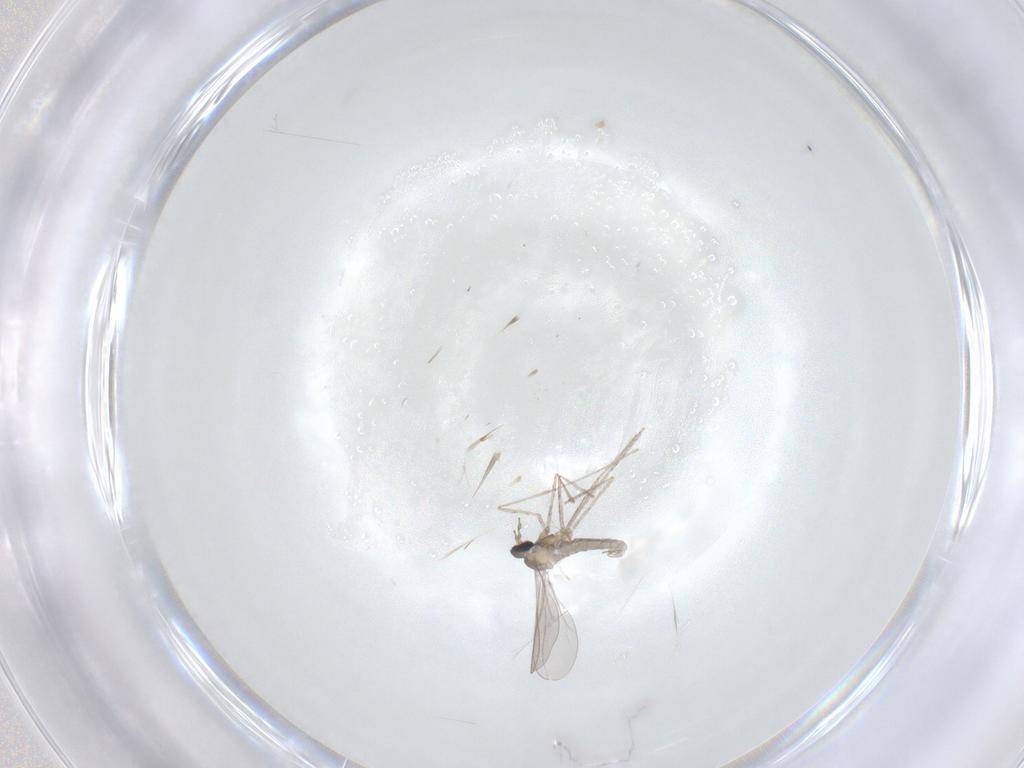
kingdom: Animalia
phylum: Arthropoda
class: Insecta
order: Diptera
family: Cecidomyiidae
